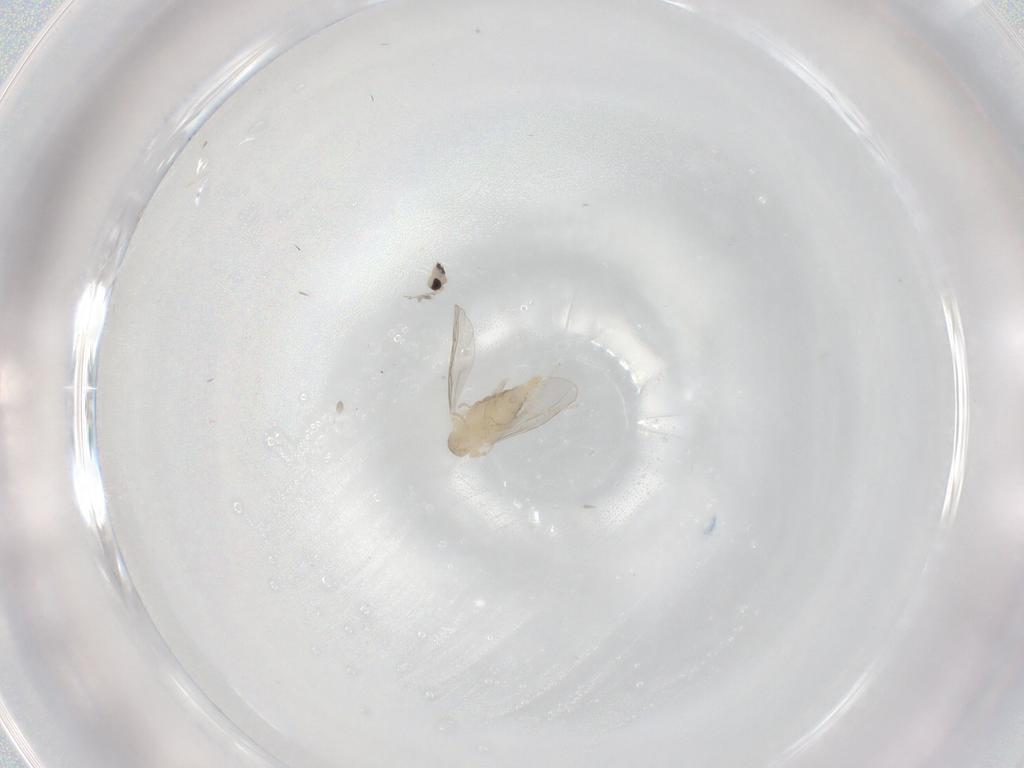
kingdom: Animalia
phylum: Arthropoda
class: Insecta
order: Diptera
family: Cecidomyiidae
